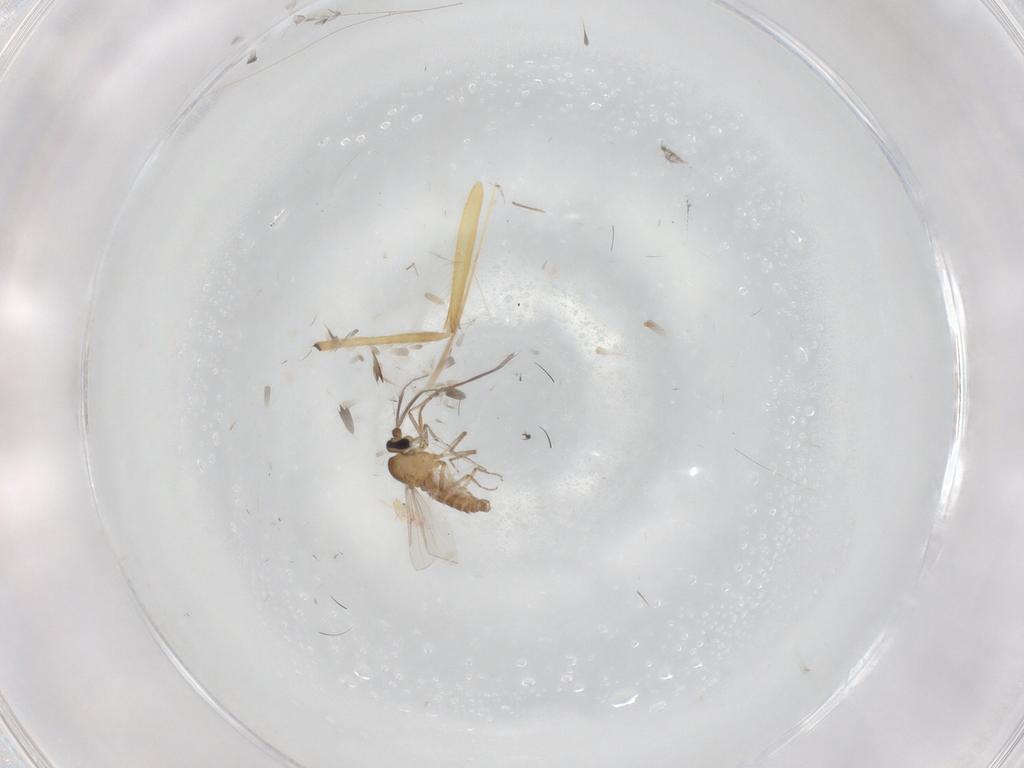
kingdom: Animalia
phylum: Arthropoda
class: Insecta
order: Diptera
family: Ceratopogonidae
